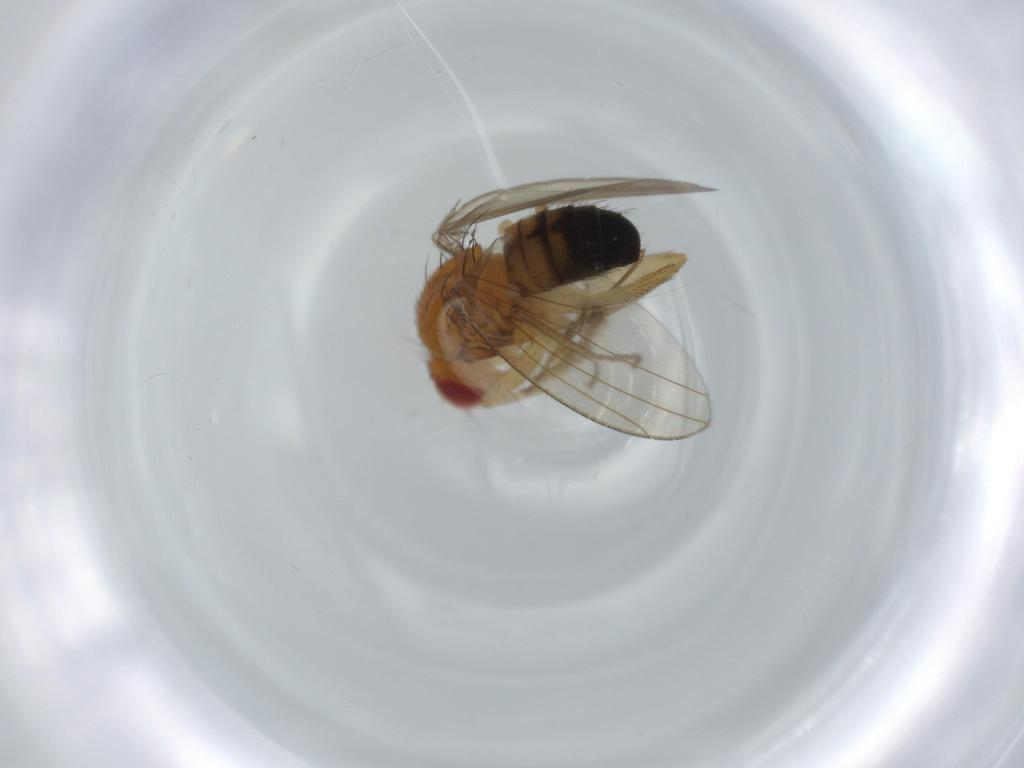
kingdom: Animalia
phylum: Arthropoda
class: Insecta
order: Diptera
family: Drosophilidae
